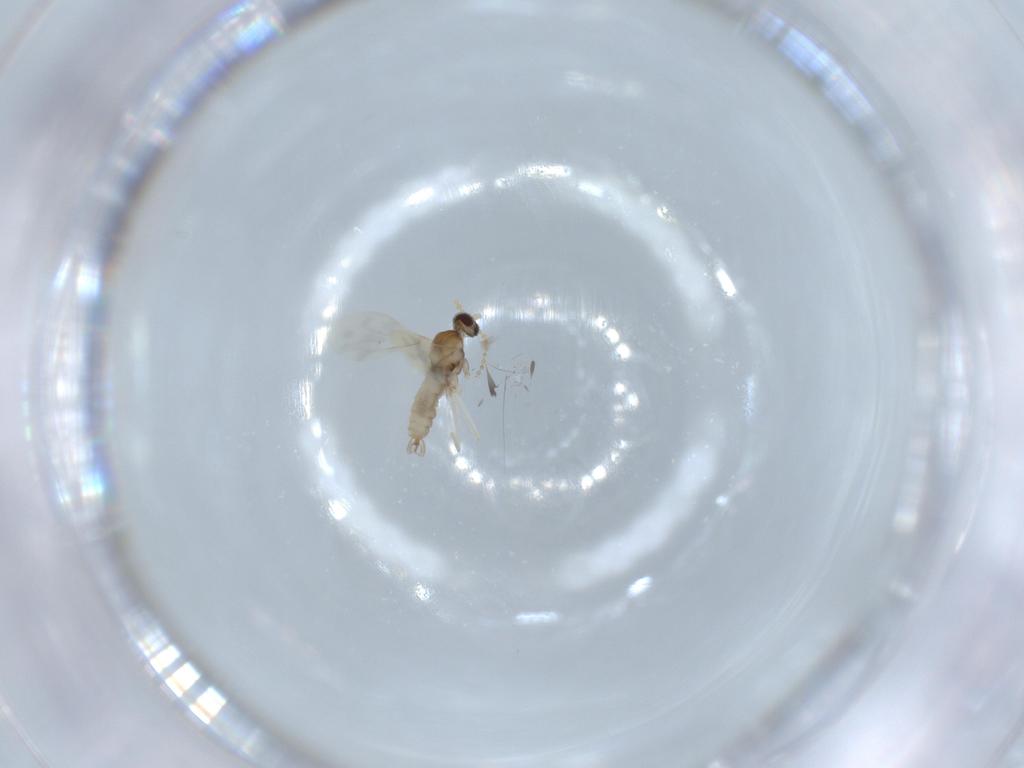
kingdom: Animalia
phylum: Arthropoda
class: Insecta
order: Diptera
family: Cecidomyiidae
